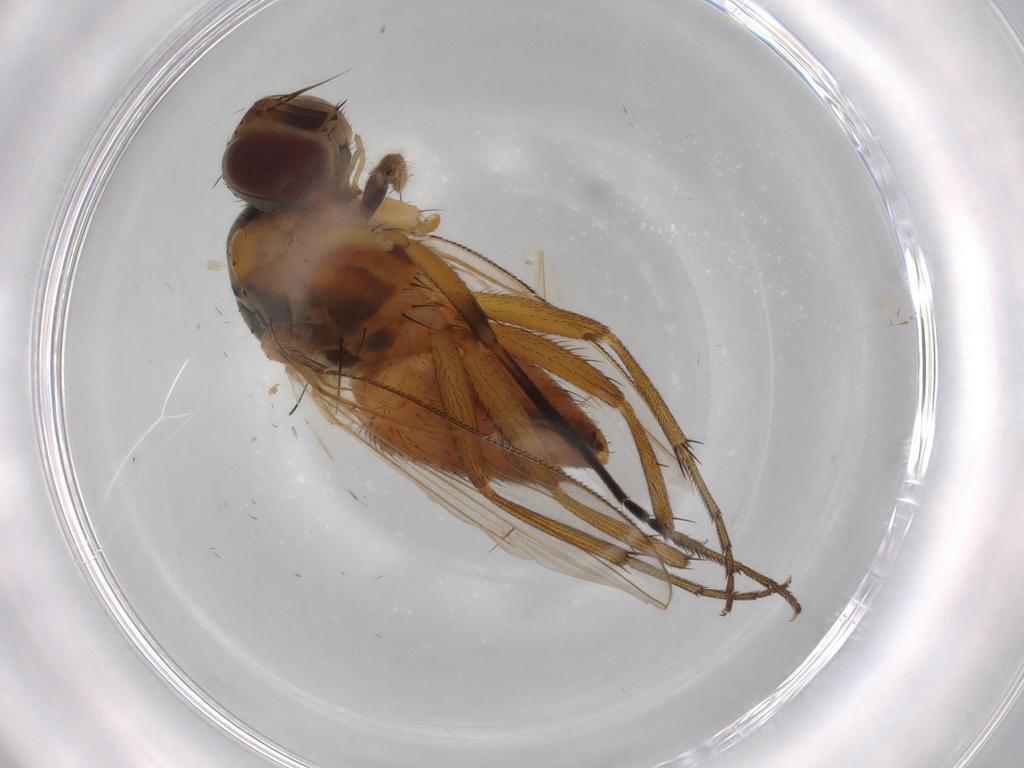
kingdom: Animalia
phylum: Arthropoda
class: Insecta
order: Diptera
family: Muscidae
